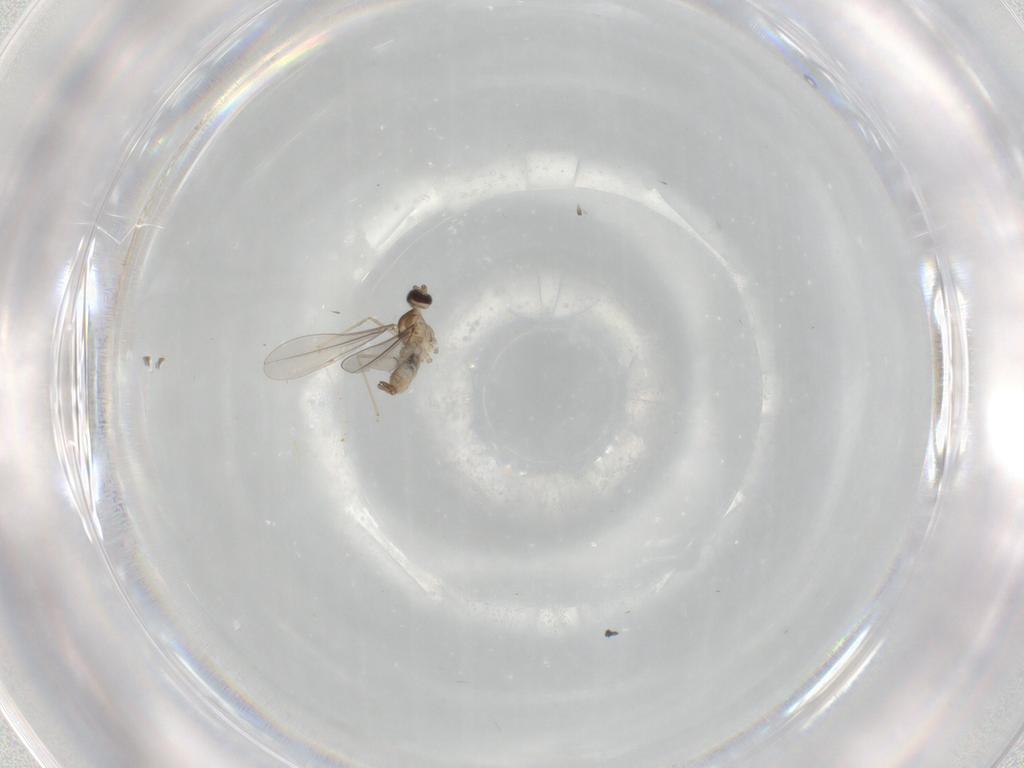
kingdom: Animalia
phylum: Arthropoda
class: Insecta
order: Diptera
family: Cecidomyiidae
